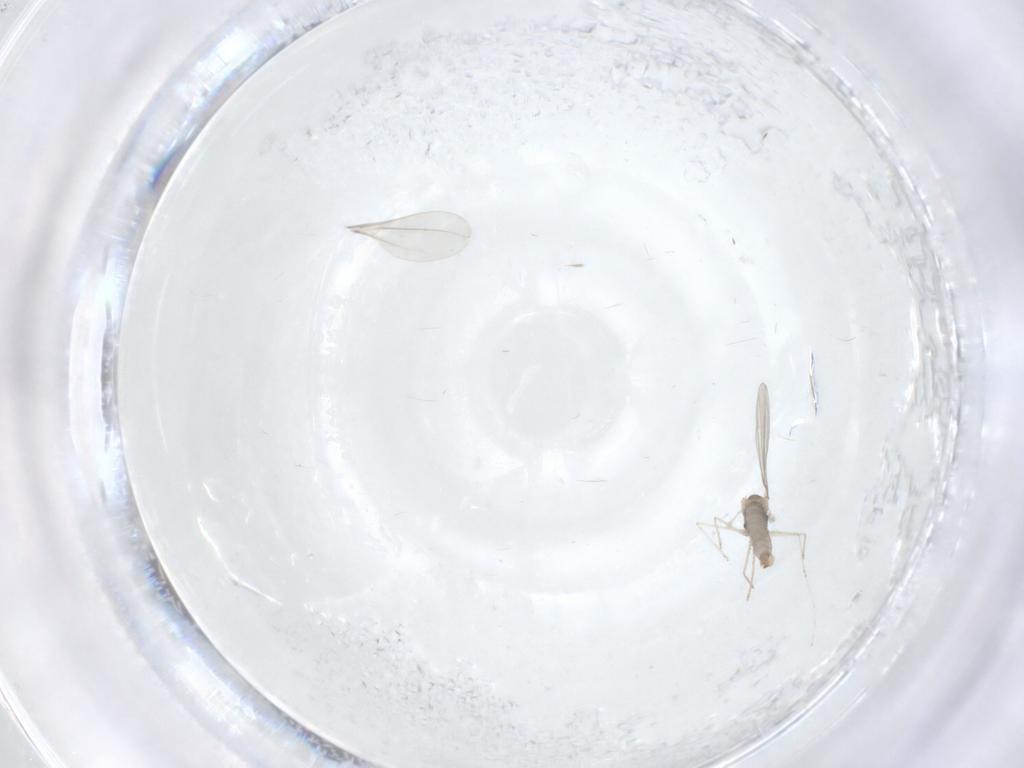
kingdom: Animalia
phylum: Arthropoda
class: Insecta
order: Diptera
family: Cecidomyiidae
